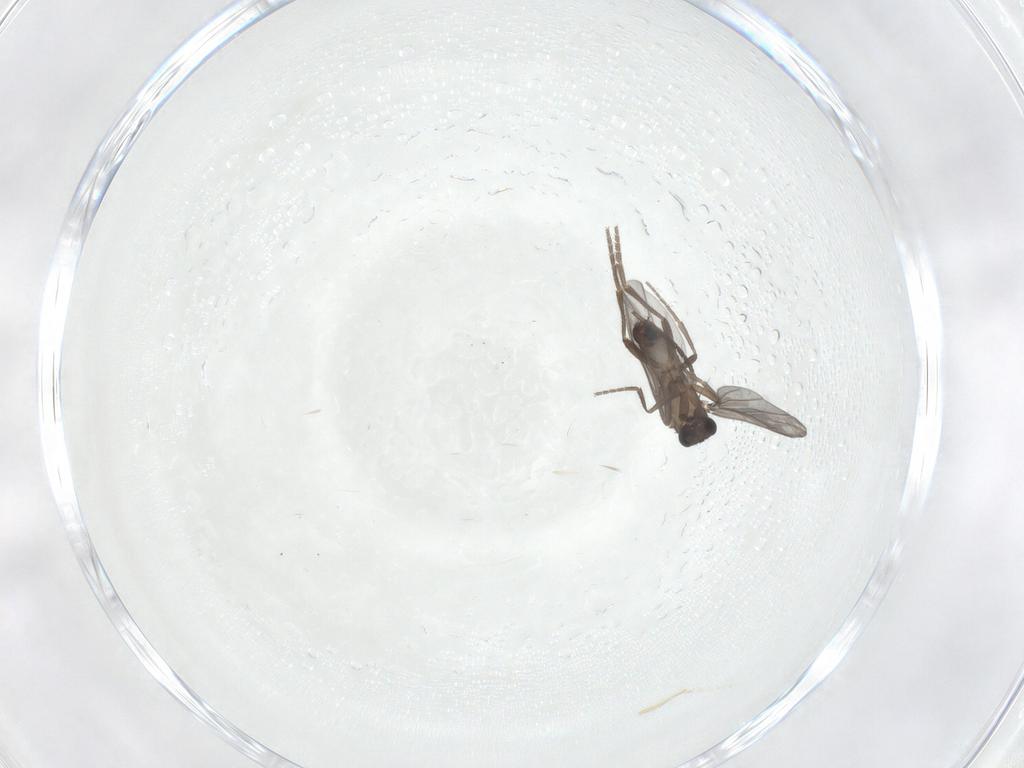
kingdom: Animalia
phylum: Arthropoda
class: Insecta
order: Diptera
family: Phoridae
